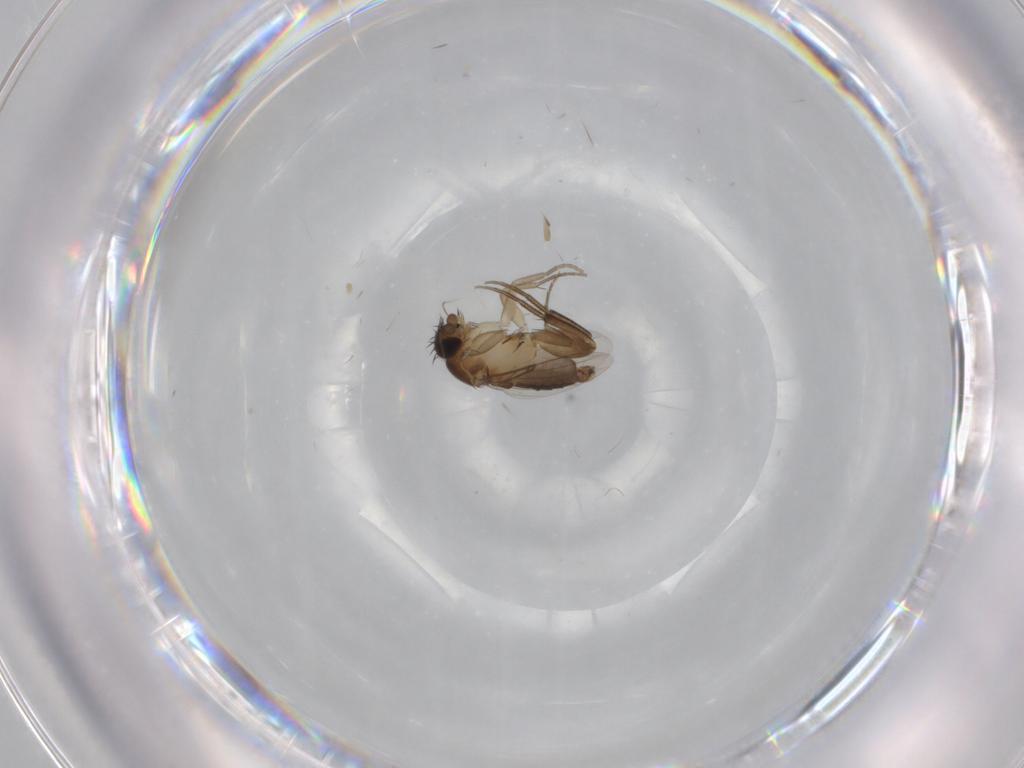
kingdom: Animalia
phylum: Arthropoda
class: Insecta
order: Diptera
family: Phoridae
